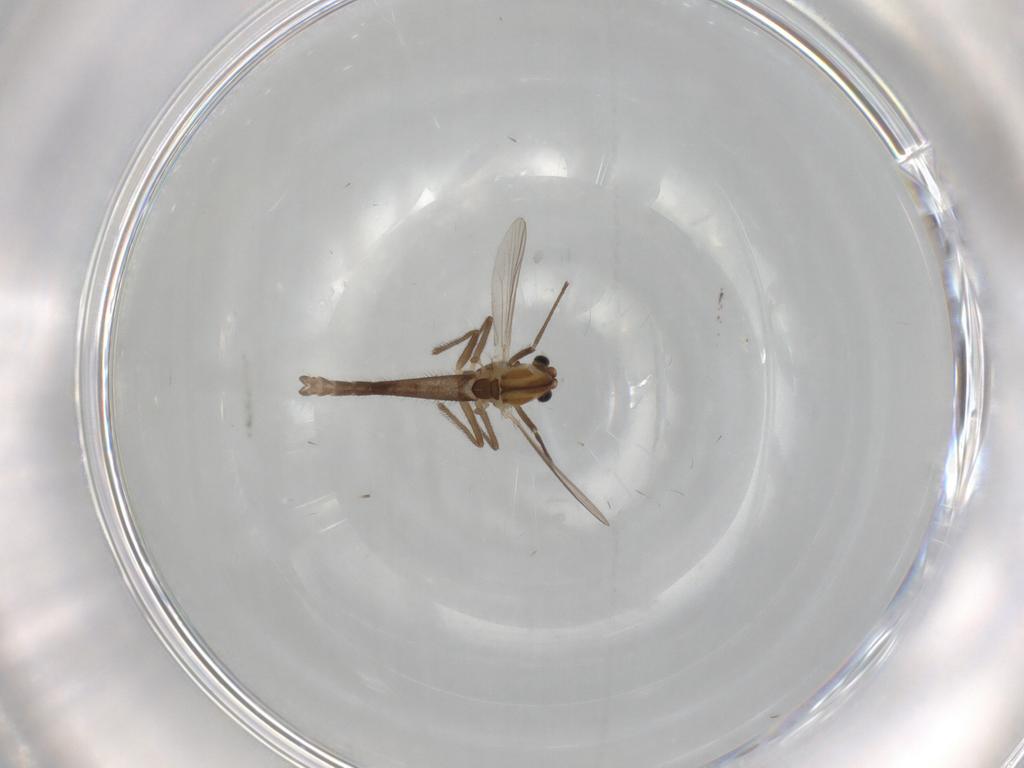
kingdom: Animalia
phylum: Arthropoda
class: Insecta
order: Diptera
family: Chironomidae
